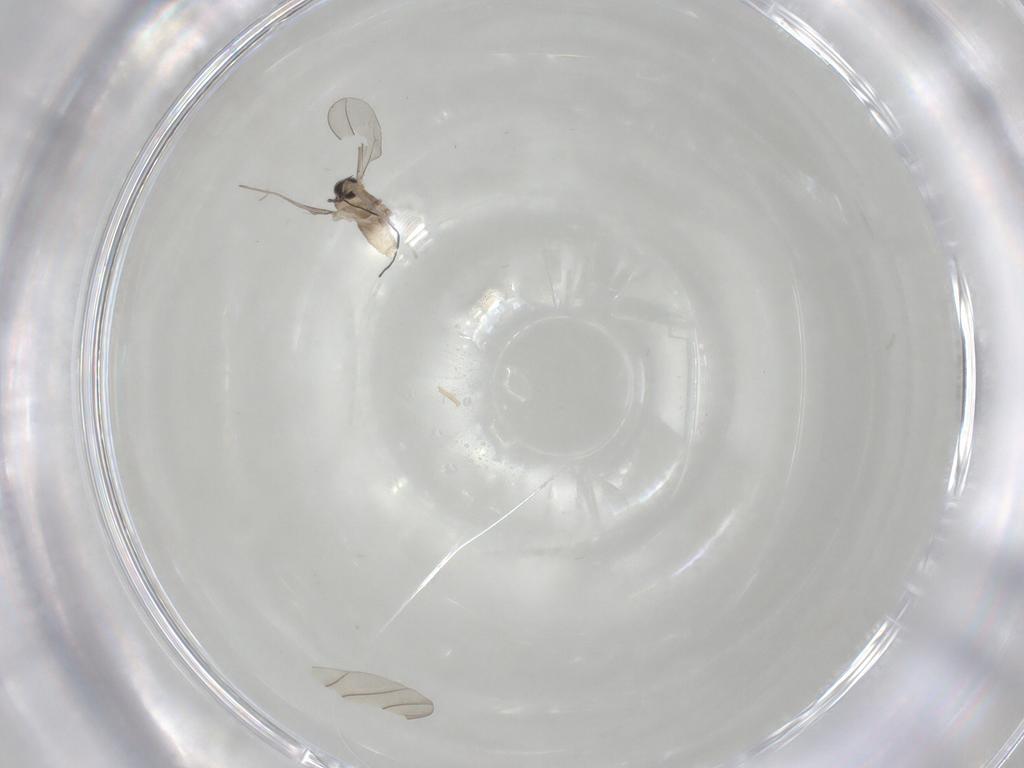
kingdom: Animalia
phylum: Arthropoda
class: Insecta
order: Diptera
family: Cecidomyiidae
